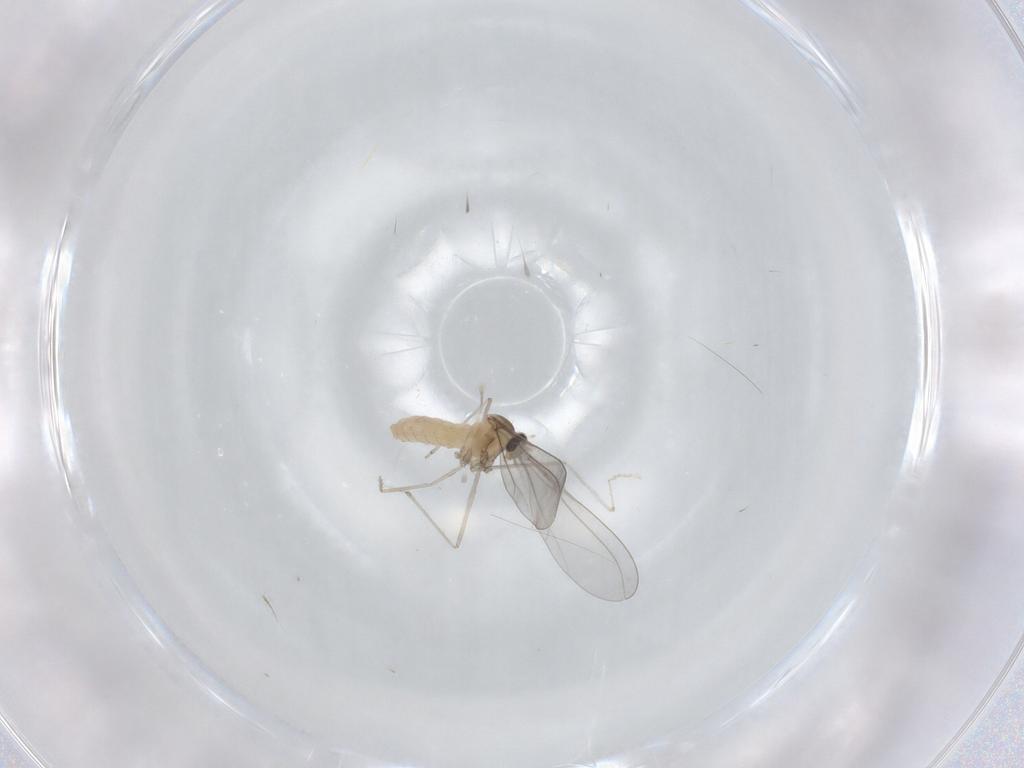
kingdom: Animalia
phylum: Arthropoda
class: Insecta
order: Diptera
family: Cecidomyiidae
